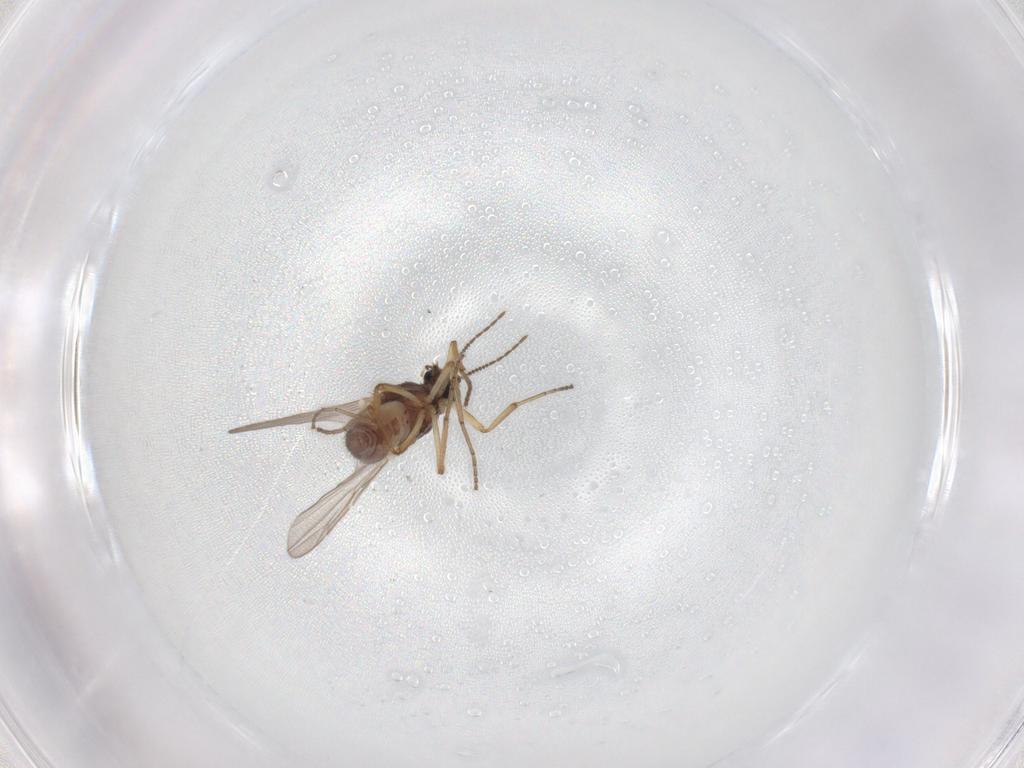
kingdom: Animalia
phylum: Arthropoda
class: Insecta
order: Diptera
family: Ceratopogonidae
